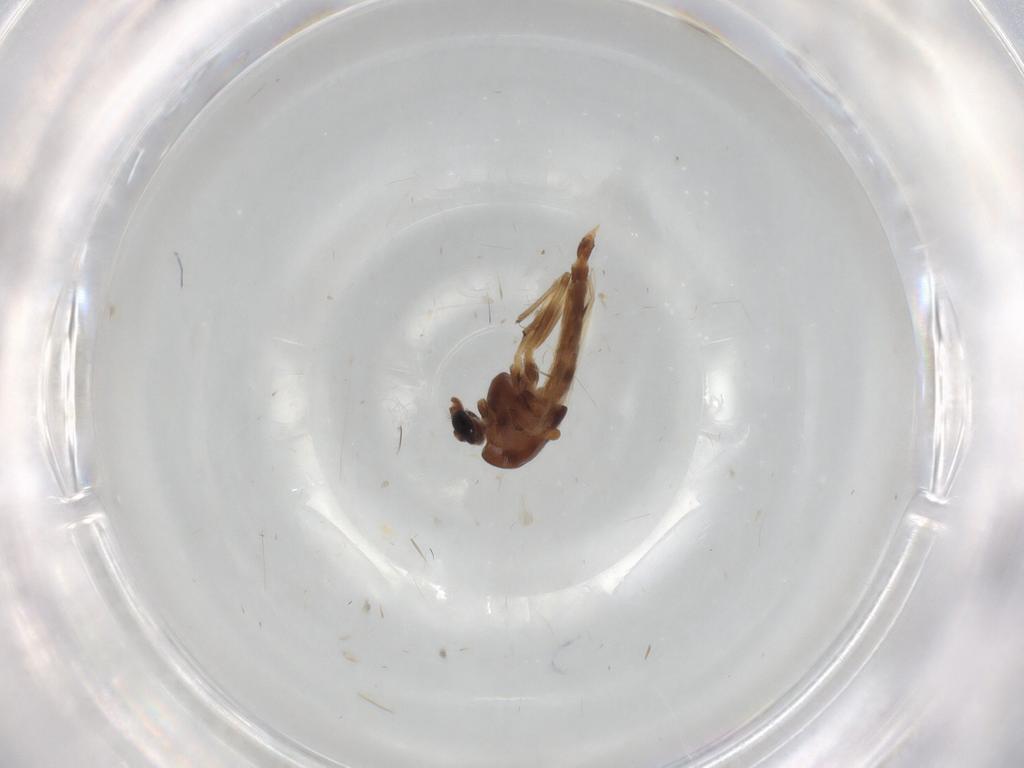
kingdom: Animalia
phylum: Arthropoda
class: Insecta
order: Diptera
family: Chironomidae
